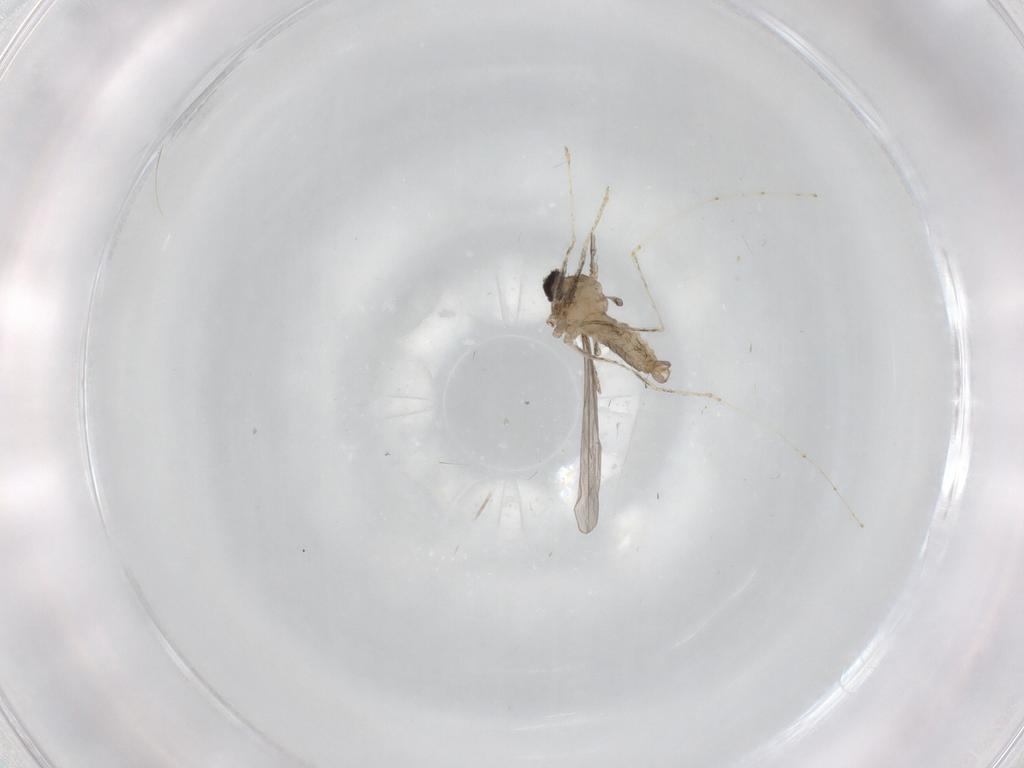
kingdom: Animalia
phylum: Arthropoda
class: Insecta
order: Diptera
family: Cecidomyiidae
